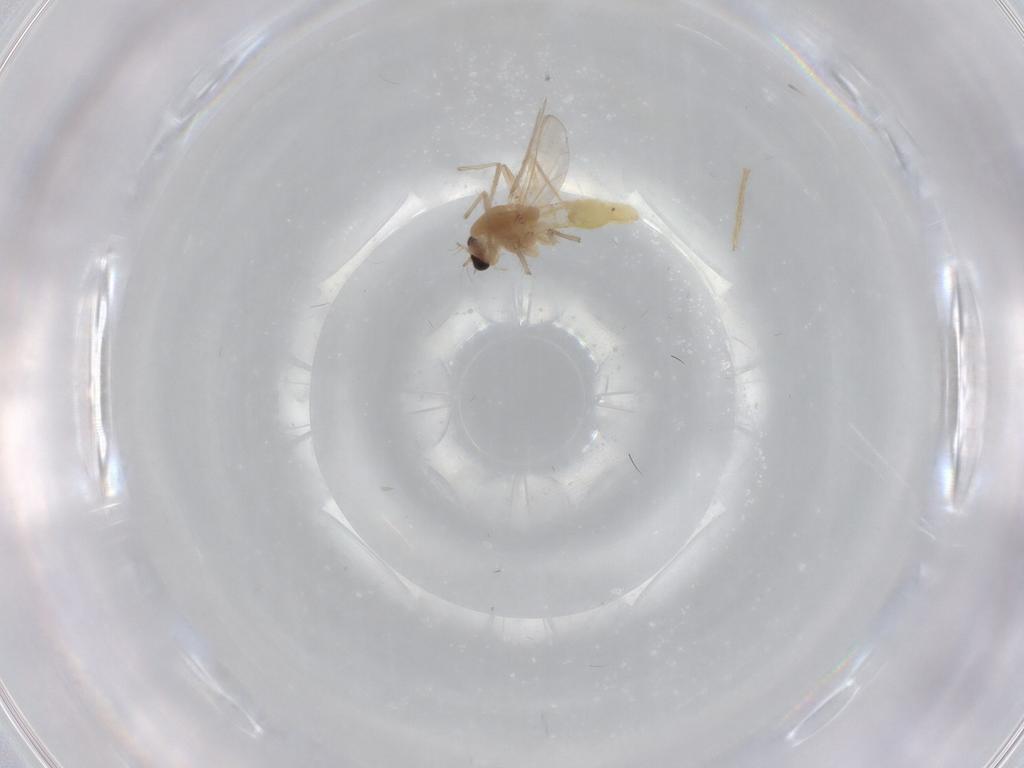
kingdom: Animalia
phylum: Arthropoda
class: Insecta
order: Diptera
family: Chironomidae
